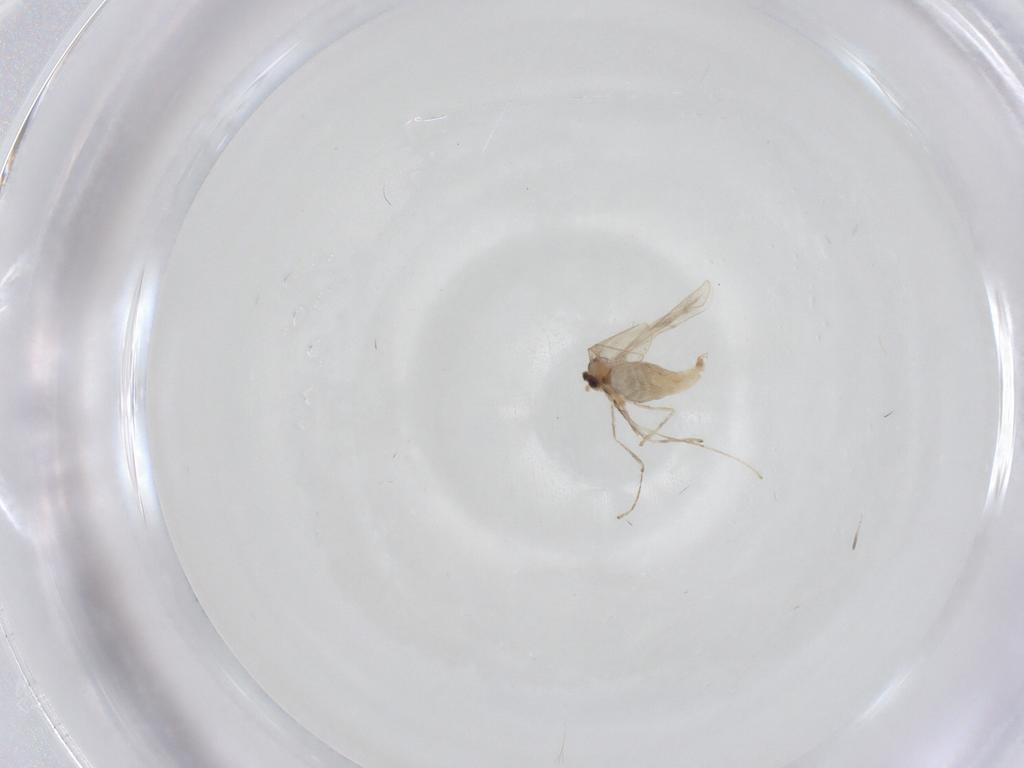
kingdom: Animalia
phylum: Arthropoda
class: Insecta
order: Diptera
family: Cecidomyiidae
